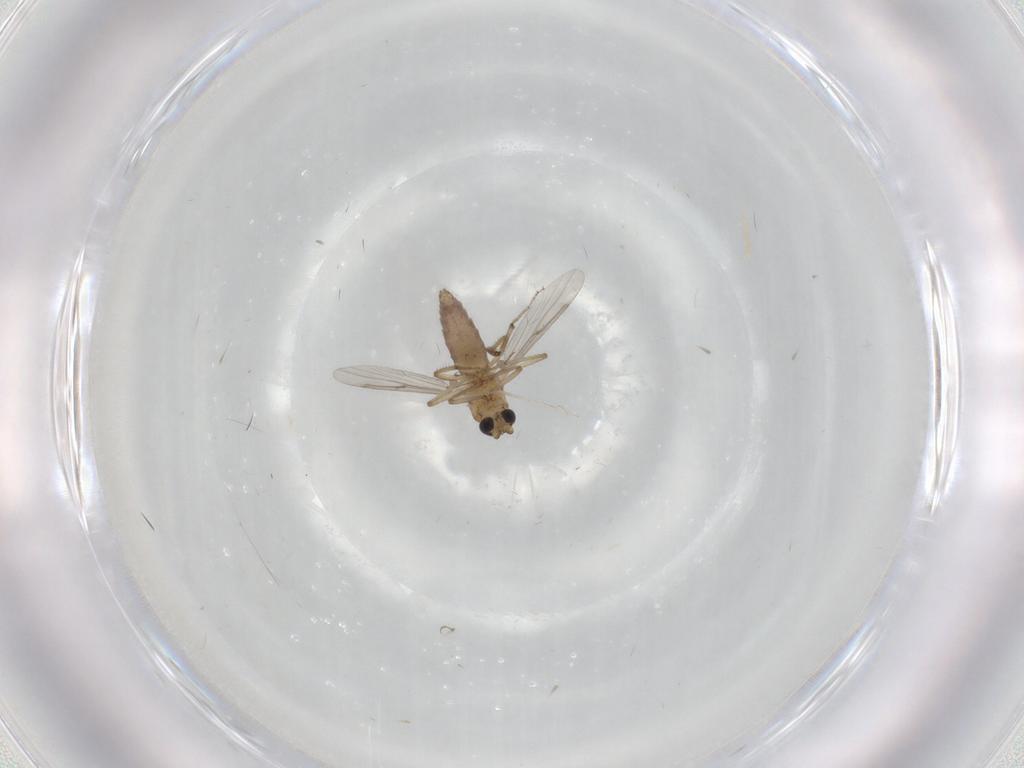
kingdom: Animalia
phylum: Arthropoda
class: Insecta
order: Diptera
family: Ceratopogonidae
